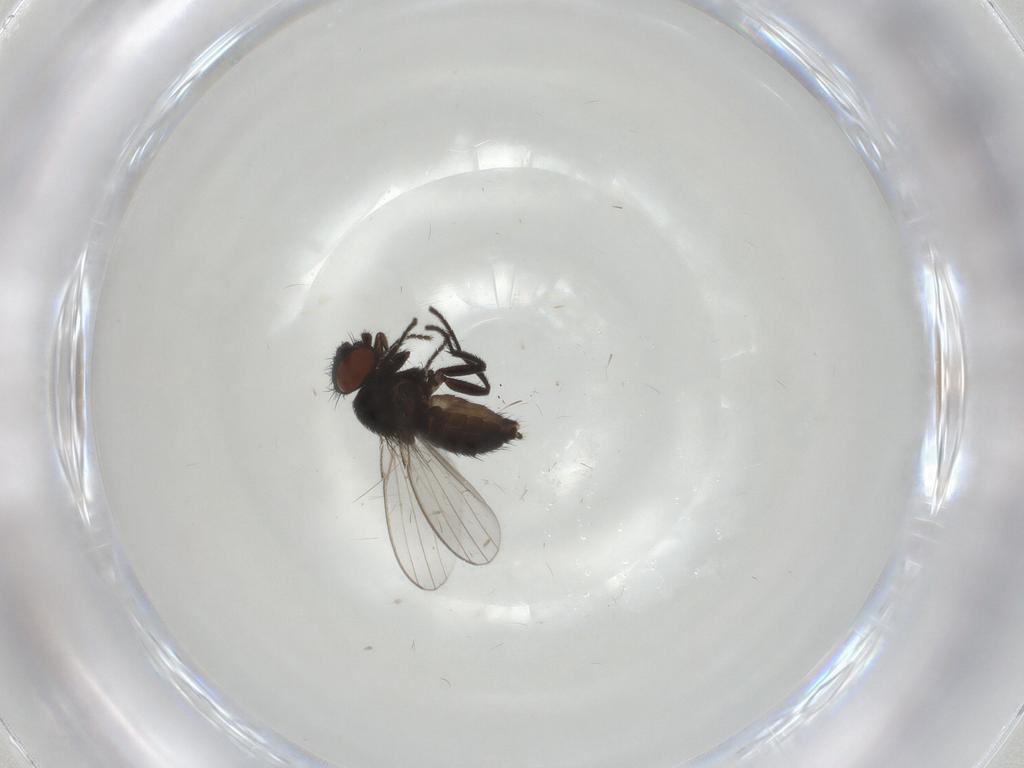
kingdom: Animalia
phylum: Arthropoda
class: Insecta
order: Diptera
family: Milichiidae
